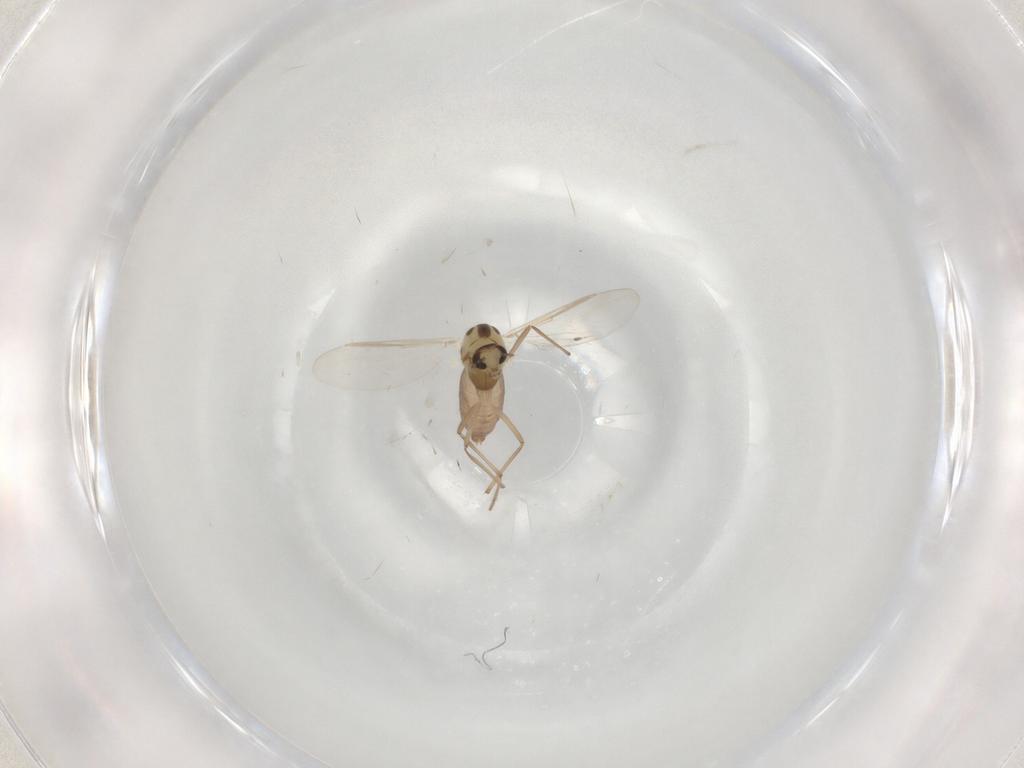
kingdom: Animalia
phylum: Arthropoda
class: Insecta
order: Diptera
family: Chironomidae
